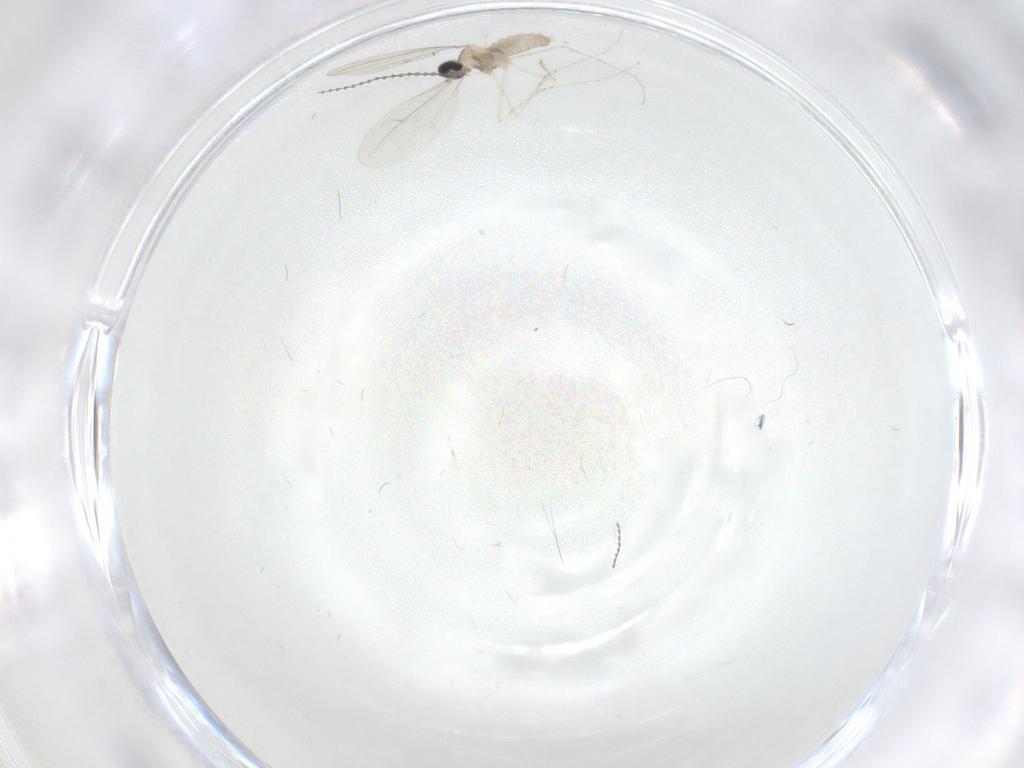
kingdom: Animalia
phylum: Arthropoda
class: Insecta
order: Diptera
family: Cecidomyiidae
